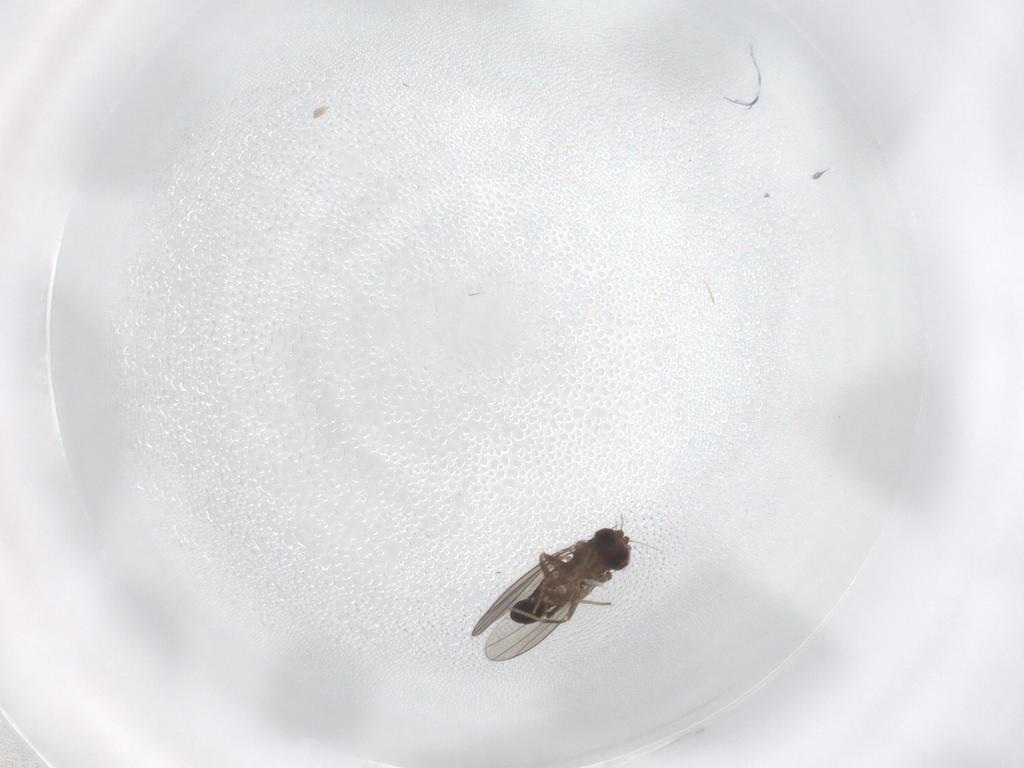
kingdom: Animalia
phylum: Arthropoda
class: Insecta
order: Diptera
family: Dolichopodidae
